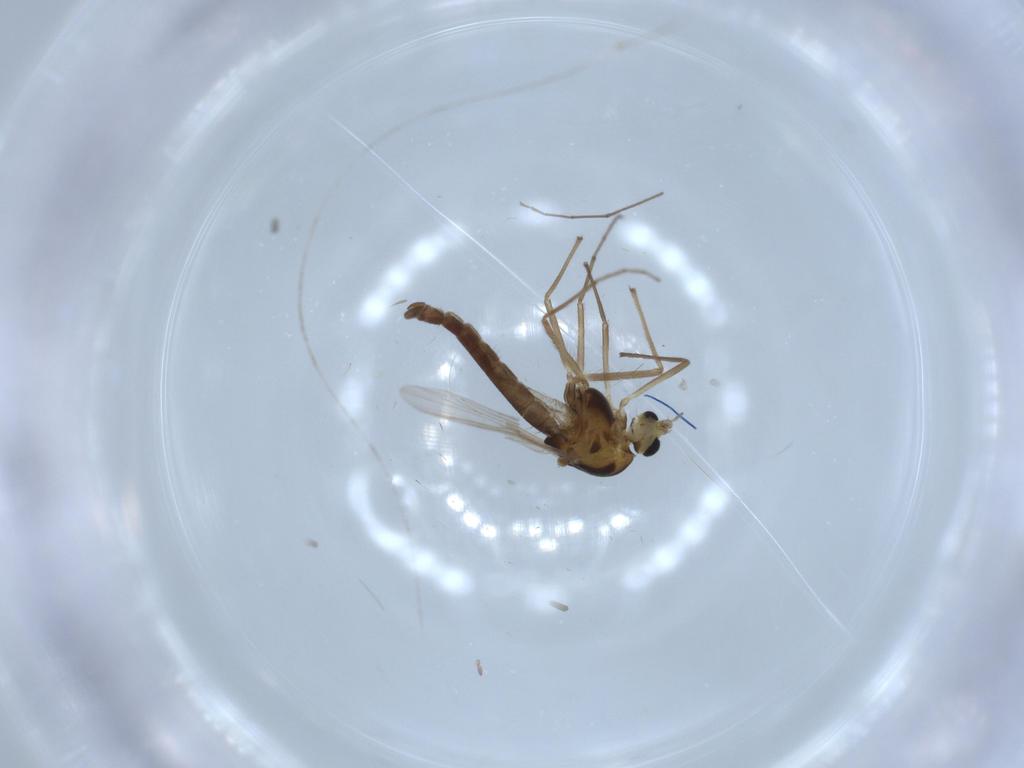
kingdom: Animalia
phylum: Arthropoda
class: Insecta
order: Diptera
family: Chironomidae
